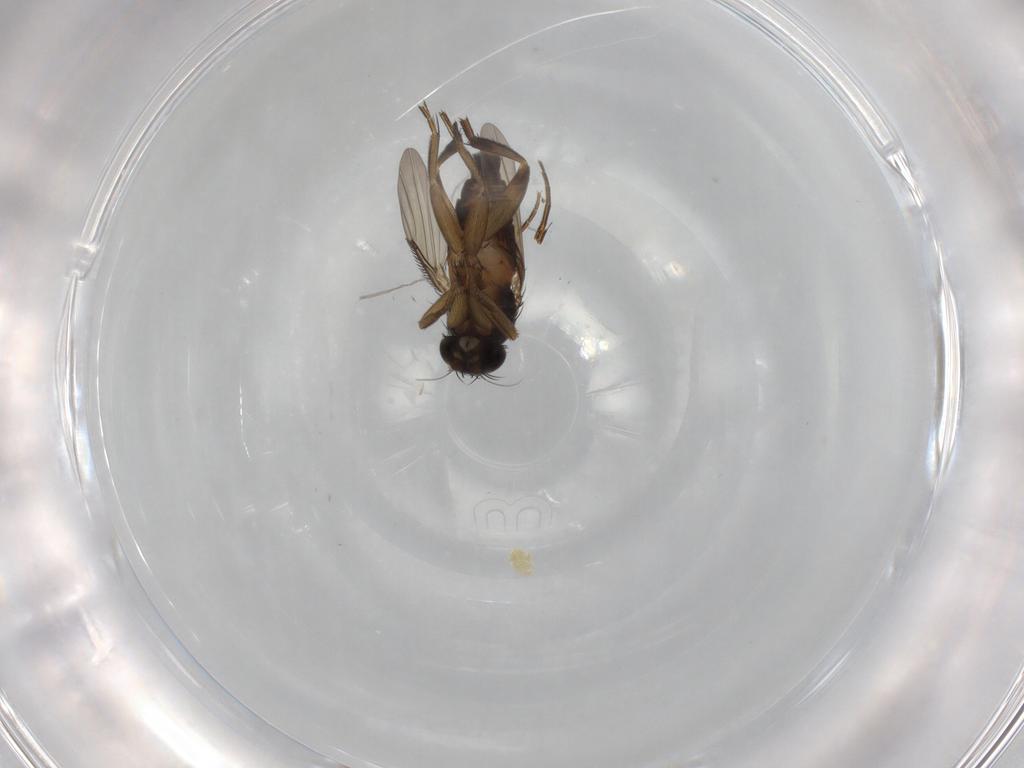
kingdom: Animalia
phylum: Arthropoda
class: Insecta
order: Diptera
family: Phoridae
